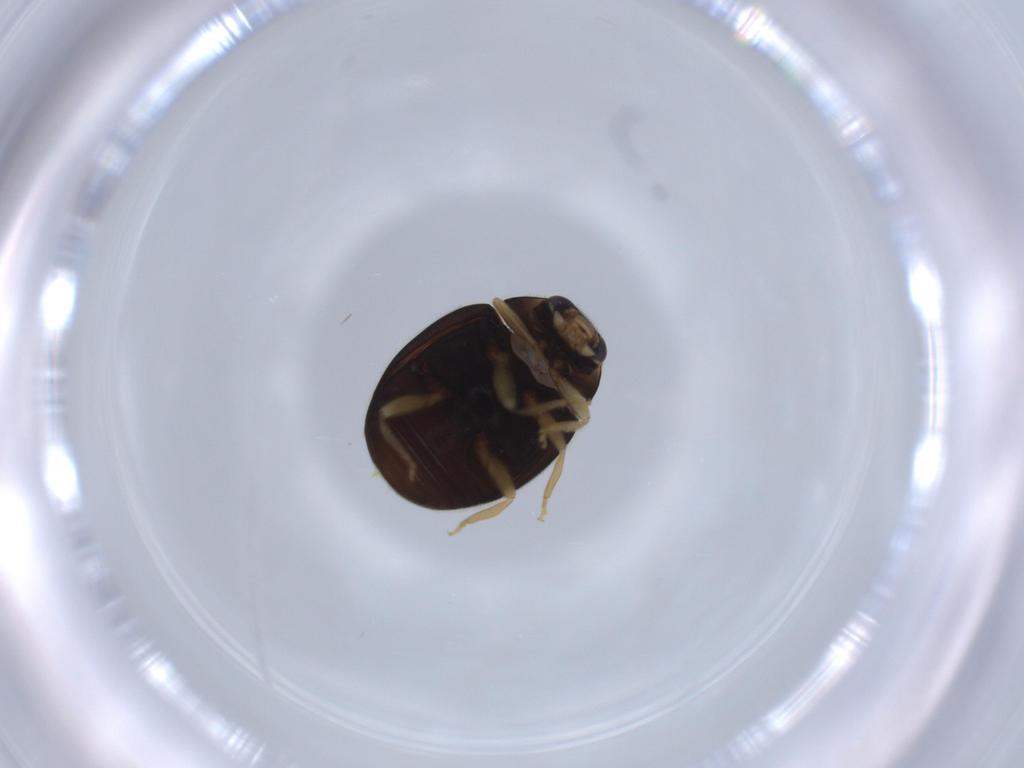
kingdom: Animalia
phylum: Arthropoda
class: Insecta
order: Coleoptera
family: Coccinellidae
